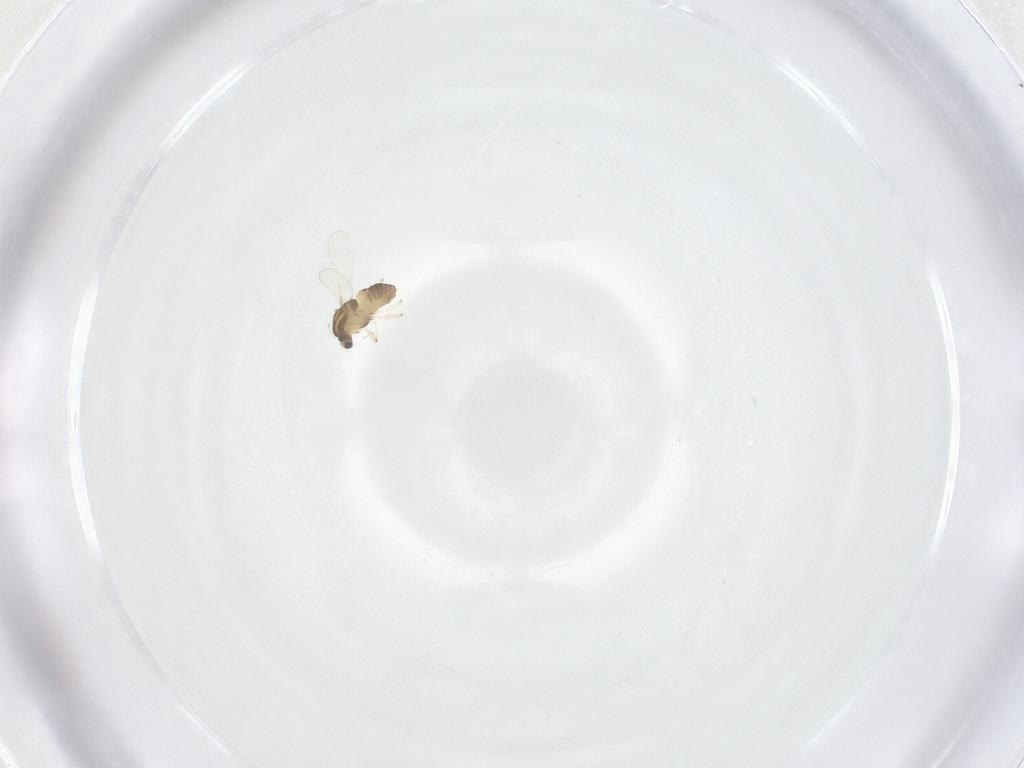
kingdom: Animalia
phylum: Arthropoda
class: Insecta
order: Diptera
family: Chironomidae
